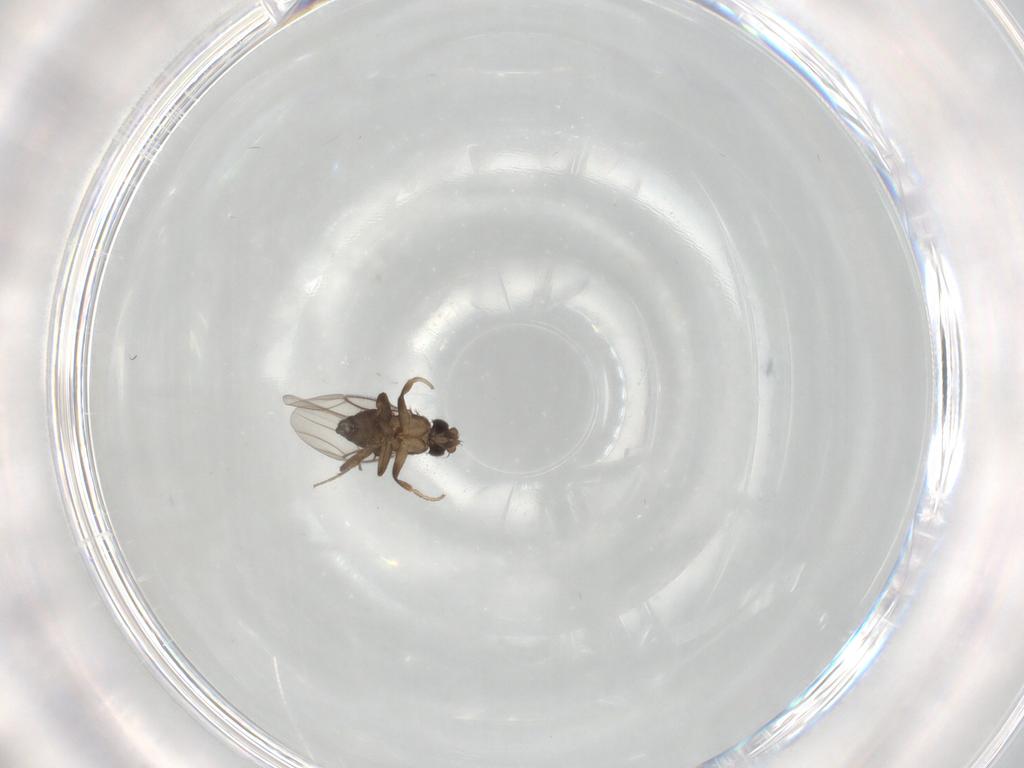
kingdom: Animalia
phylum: Arthropoda
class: Insecta
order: Diptera
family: Phoridae
